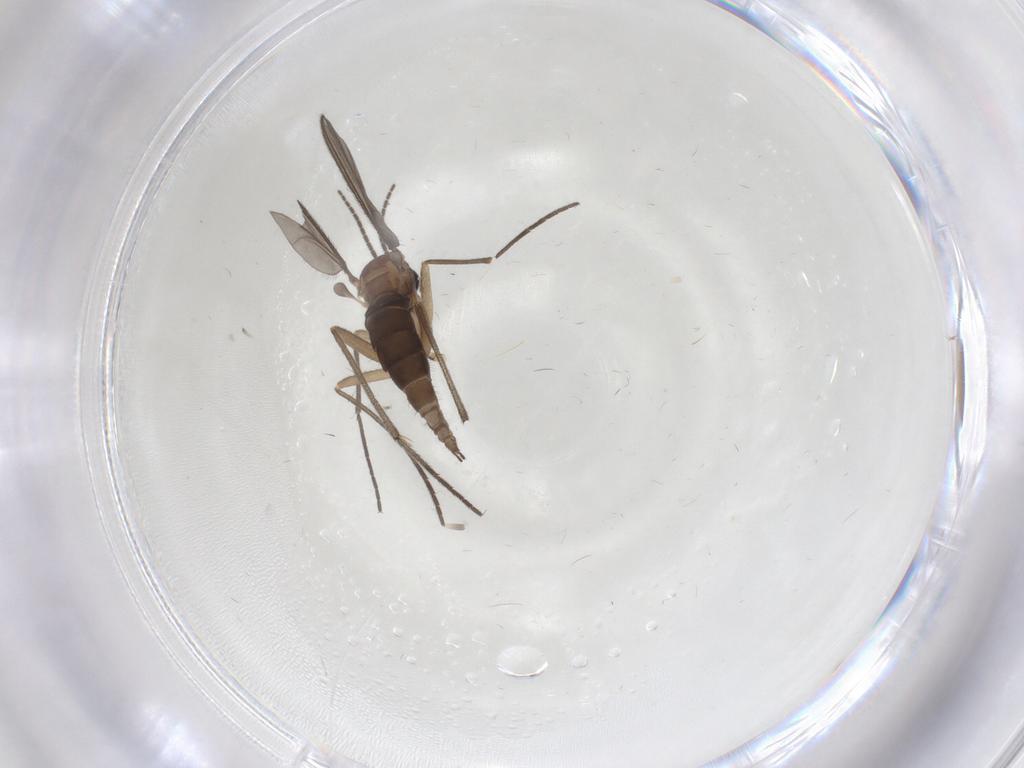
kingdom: Animalia
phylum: Arthropoda
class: Insecta
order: Diptera
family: Sciaridae
